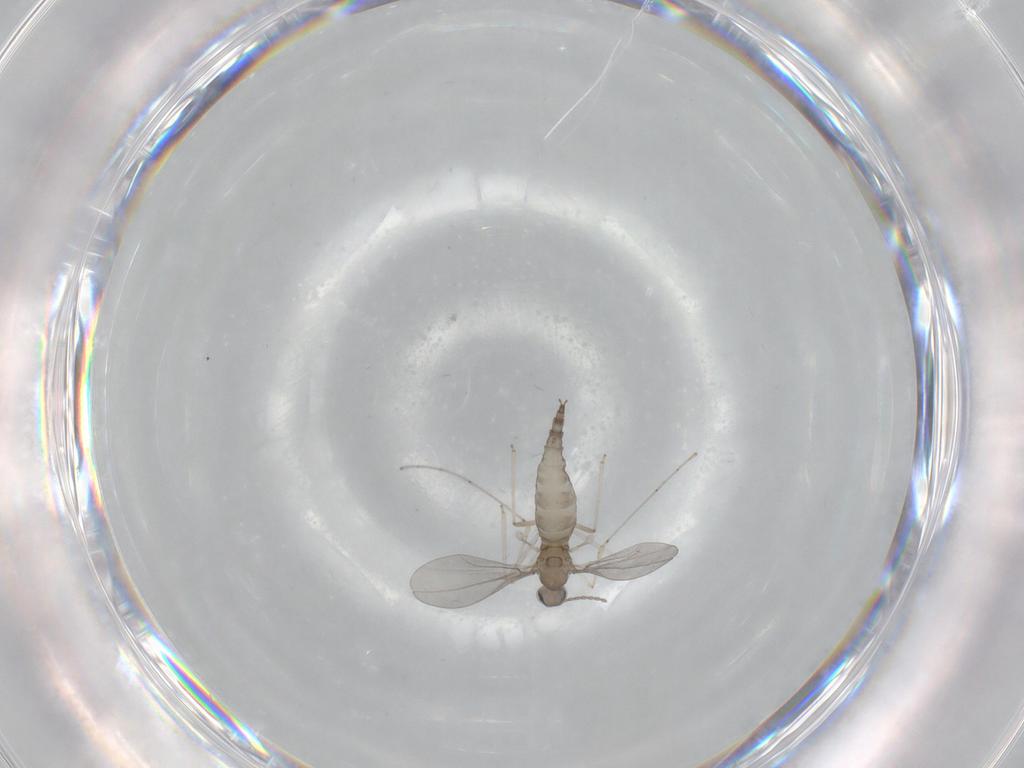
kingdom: Animalia
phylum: Arthropoda
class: Insecta
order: Diptera
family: Cecidomyiidae
